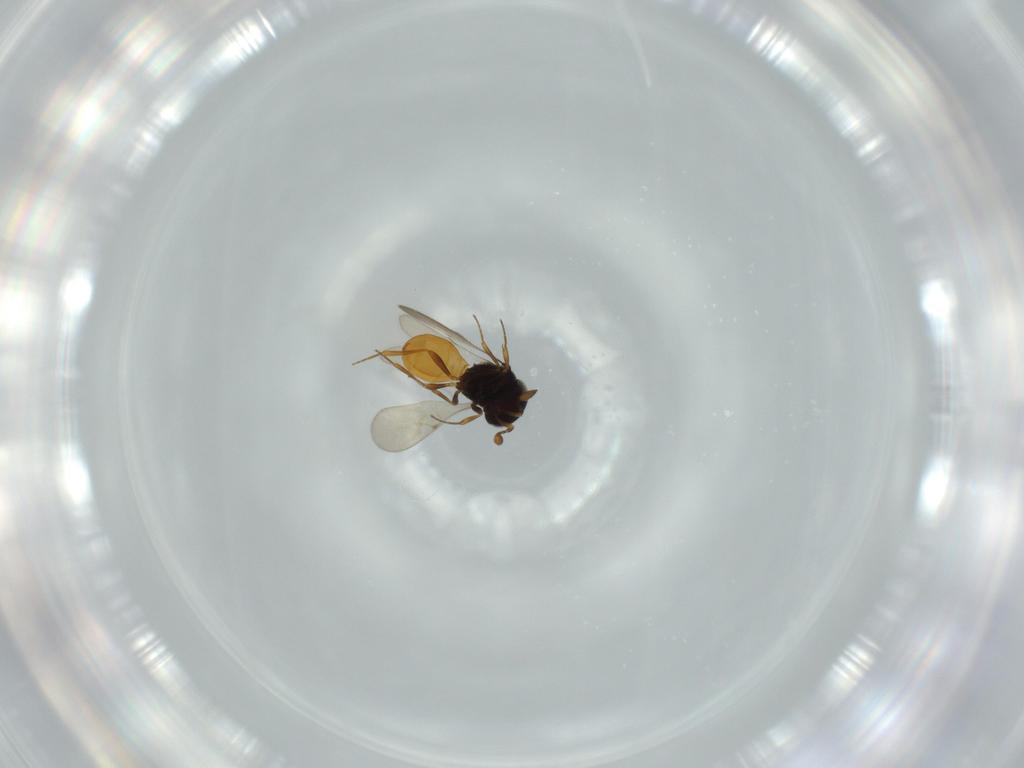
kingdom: Animalia
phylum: Arthropoda
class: Insecta
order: Hymenoptera
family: Scelionidae
